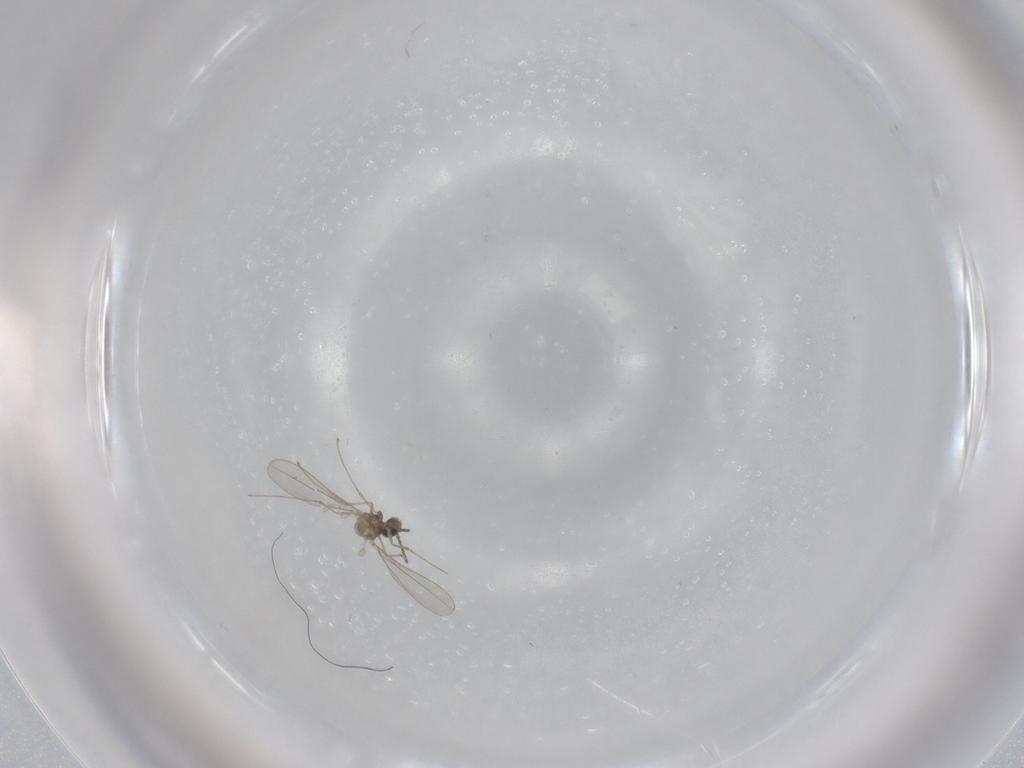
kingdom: Animalia
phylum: Arthropoda
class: Insecta
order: Diptera
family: Cecidomyiidae
